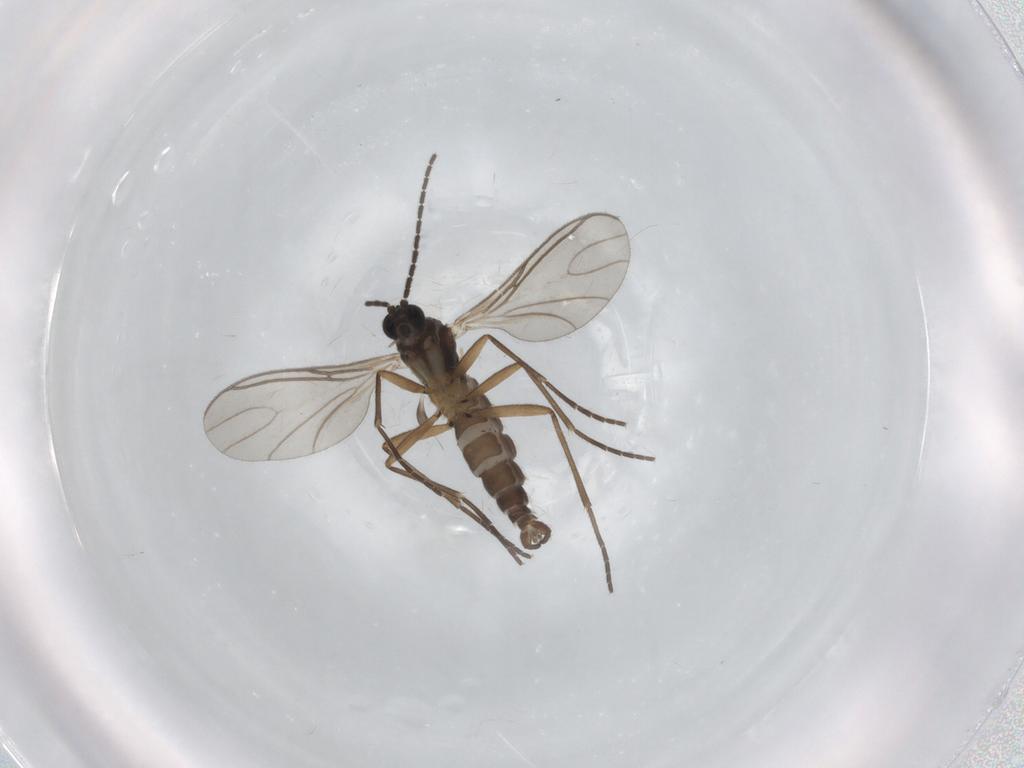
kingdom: Animalia
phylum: Arthropoda
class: Insecta
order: Diptera
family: Sciaridae
